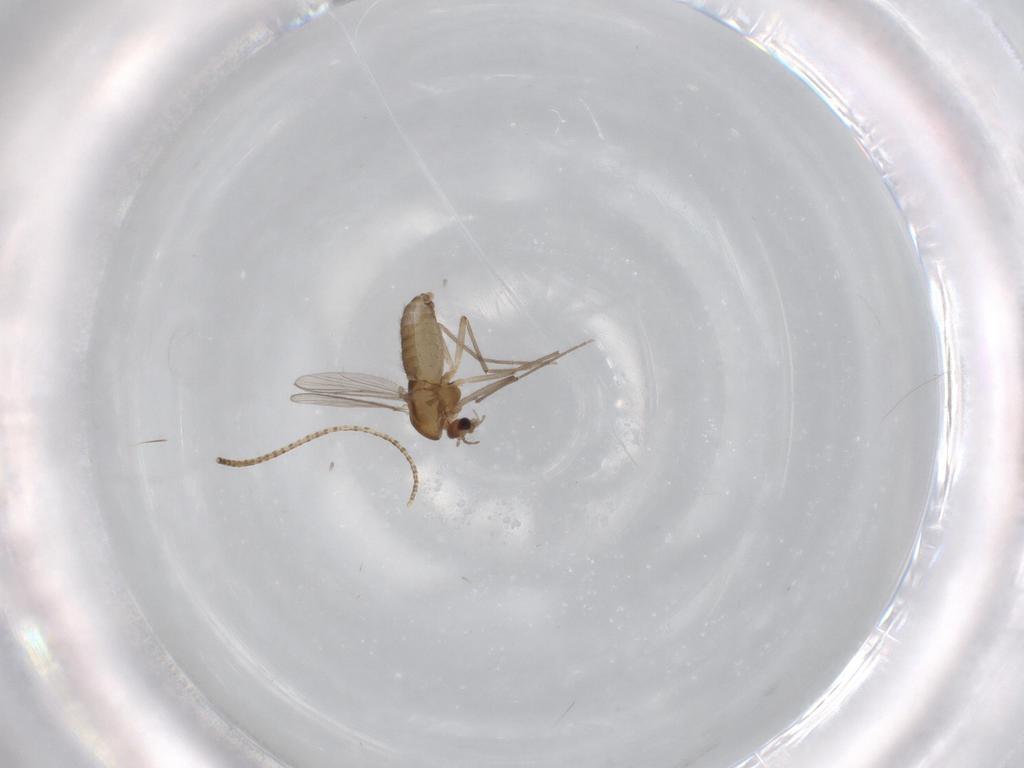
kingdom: Animalia
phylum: Arthropoda
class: Insecta
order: Diptera
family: Chironomidae
